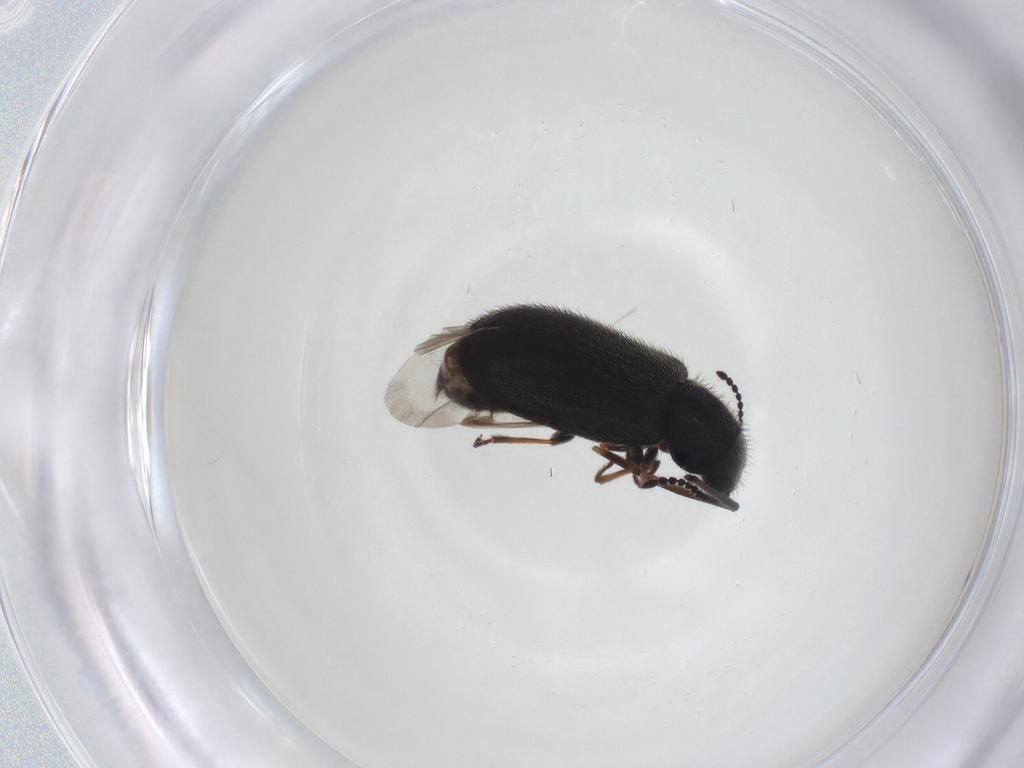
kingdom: Animalia
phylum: Arthropoda
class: Insecta
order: Coleoptera
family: Melyridae
